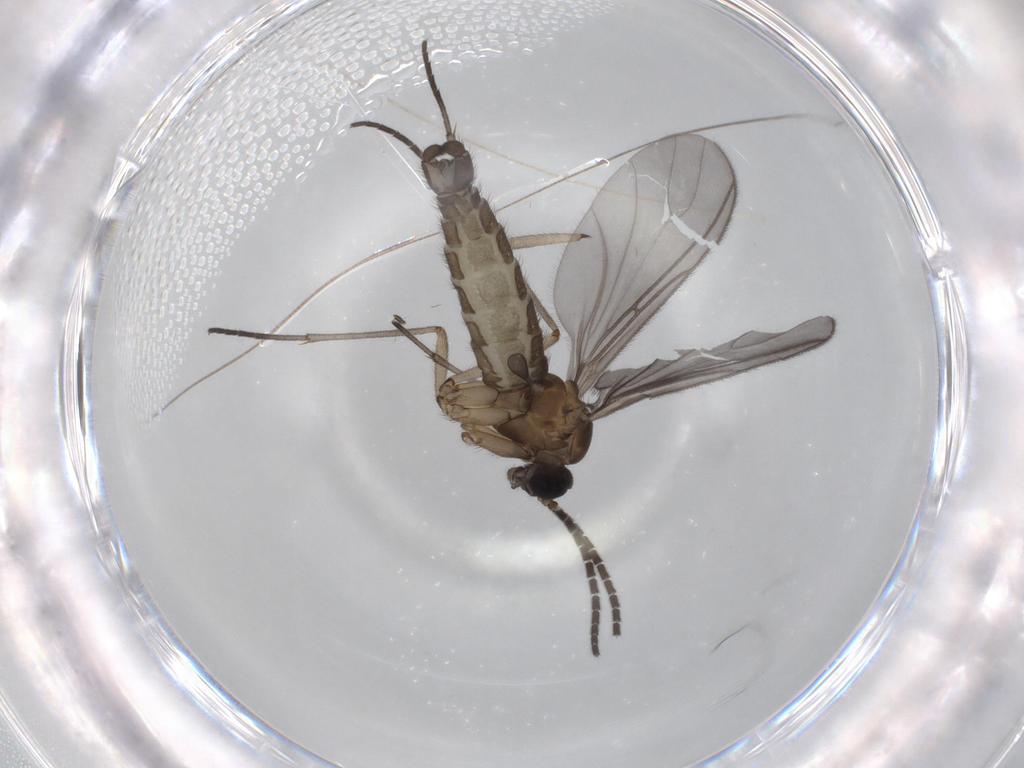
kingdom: Animalia
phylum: Arthropoda
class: Insecta
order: Diptera
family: Sciaridae
